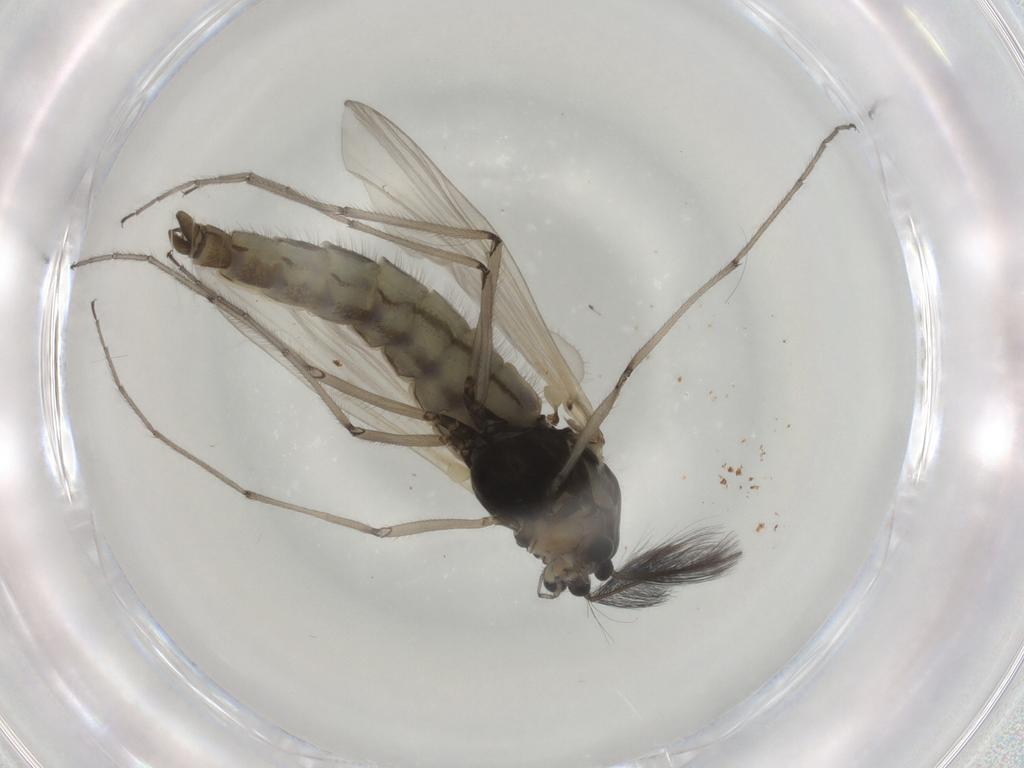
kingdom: Animalia
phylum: Arthropoda
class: Insecta
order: Diptera
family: Chironomidae
